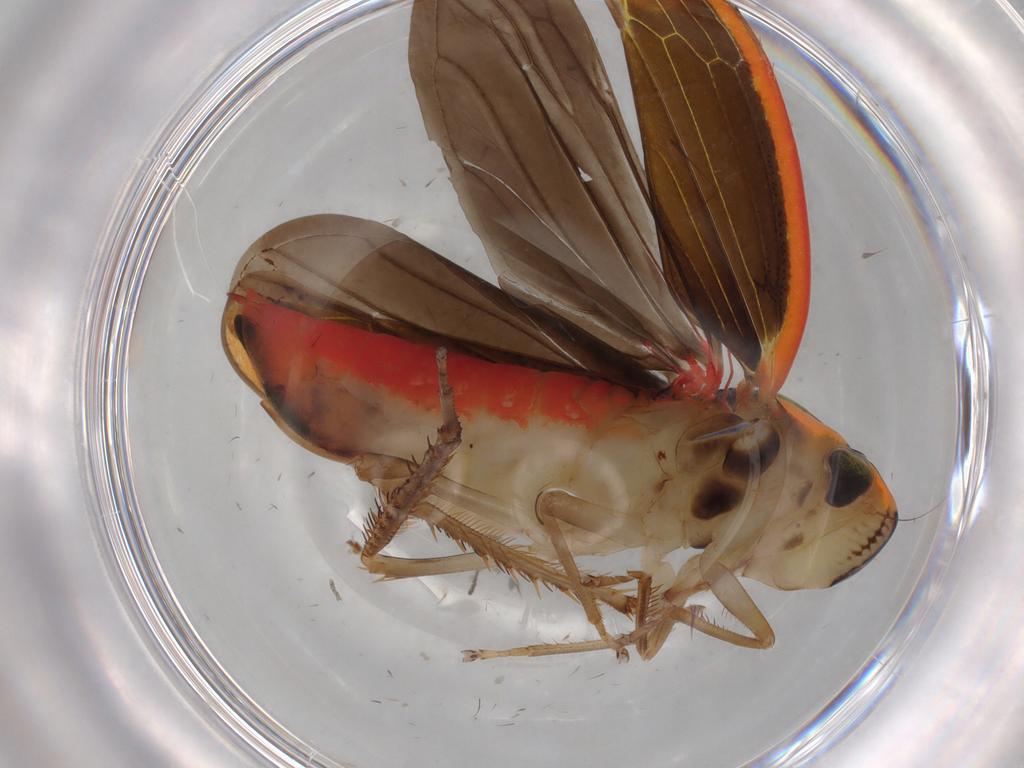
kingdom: Animalia
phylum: Arthropoda
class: Insecta
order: Hemiptera
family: Cicadellidae
